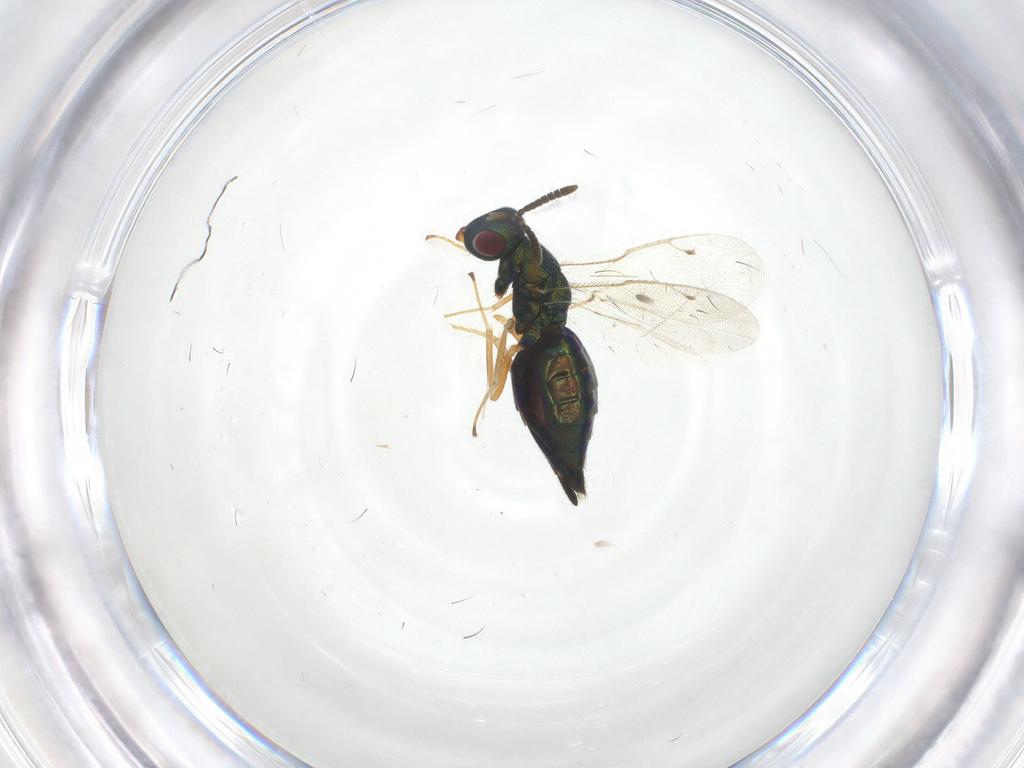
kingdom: Animalia
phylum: Arthropoda
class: Insecta
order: Hymenoptera
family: Pteromalidae
